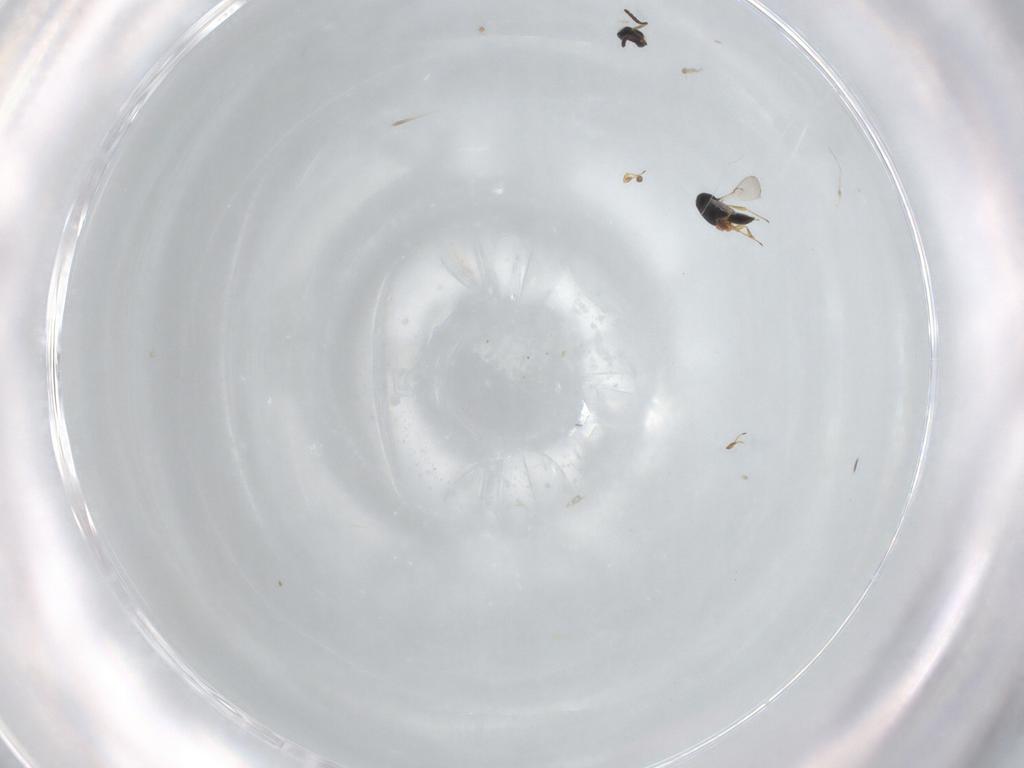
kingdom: Animalia
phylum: Arthropoda
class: Insecta
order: Hymenoptera
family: Scelionidae
